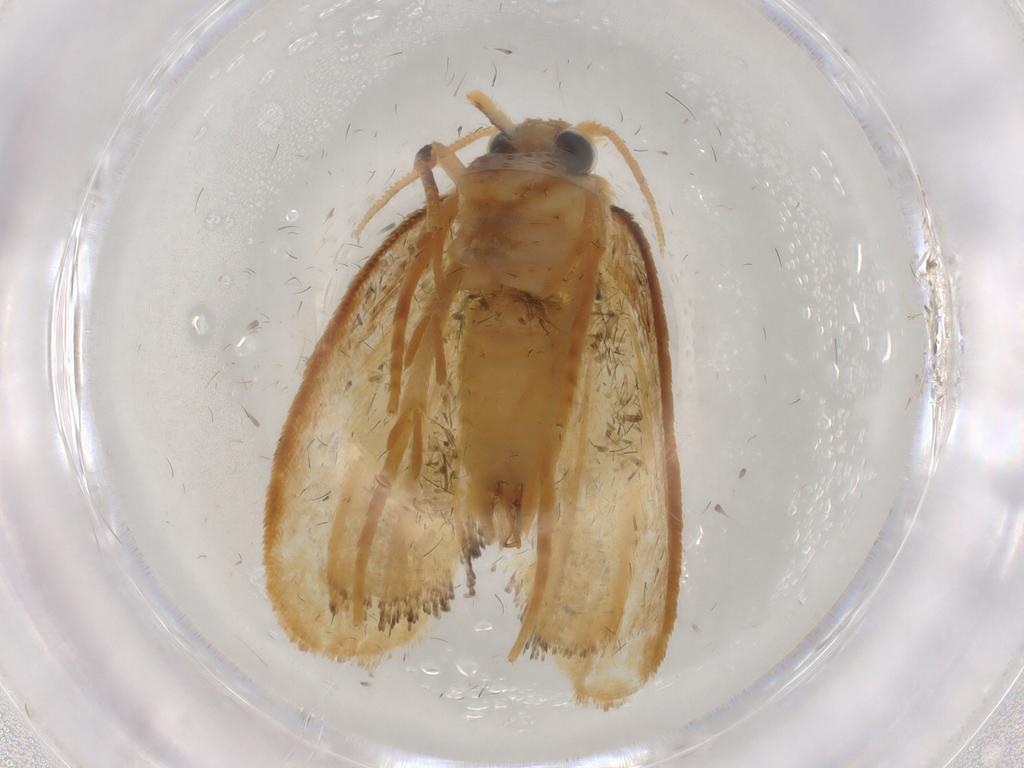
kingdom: Animalia
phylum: Arthropoda
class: Insecta
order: Lepidoptera
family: Psychidae
